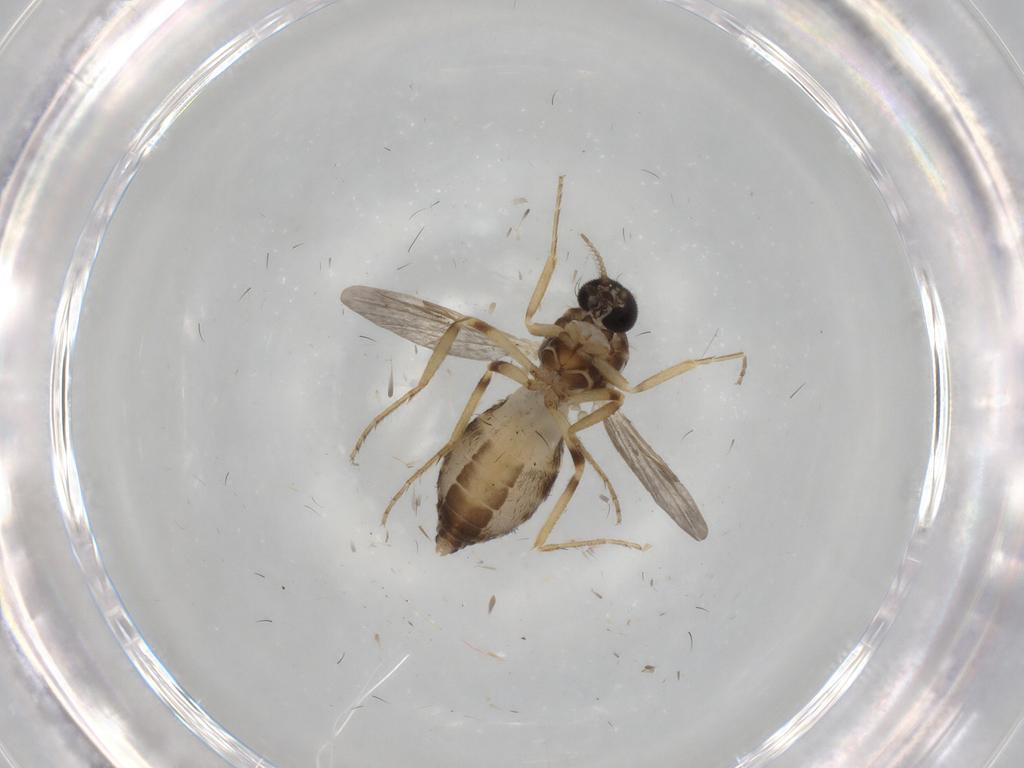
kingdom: Animalia
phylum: Arthropoda
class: Insecta
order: Diptera
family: Ceratopogonidae
